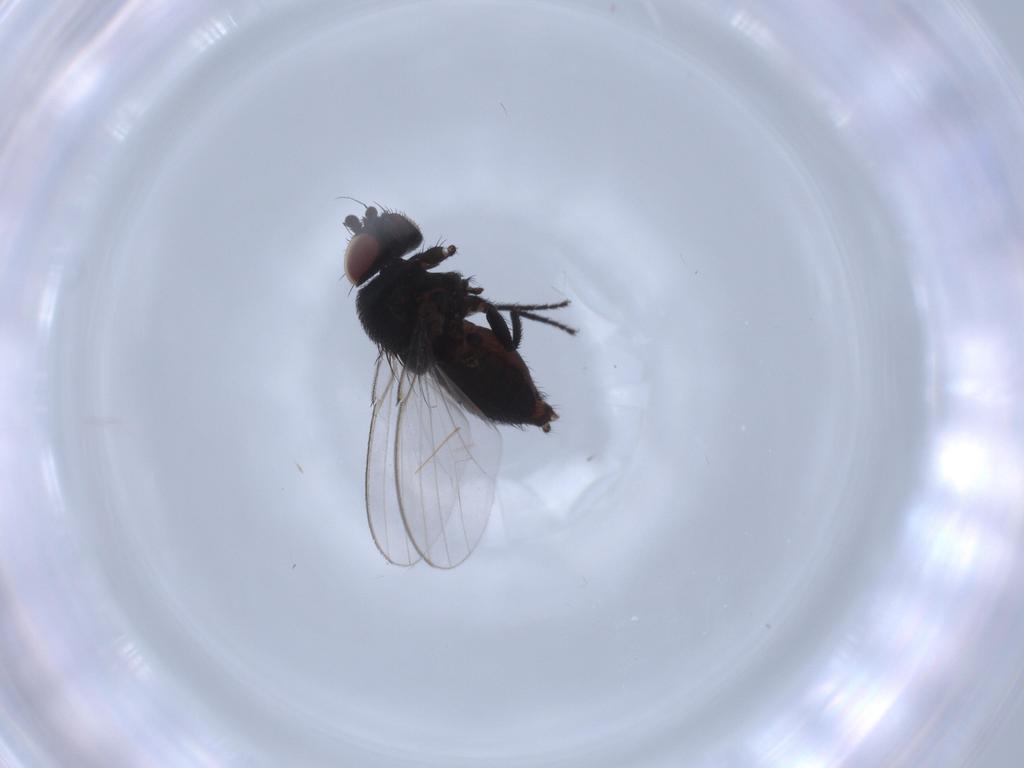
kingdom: Animalia
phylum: Arthropoda
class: Insecta
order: Diptera
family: Milichiidae
